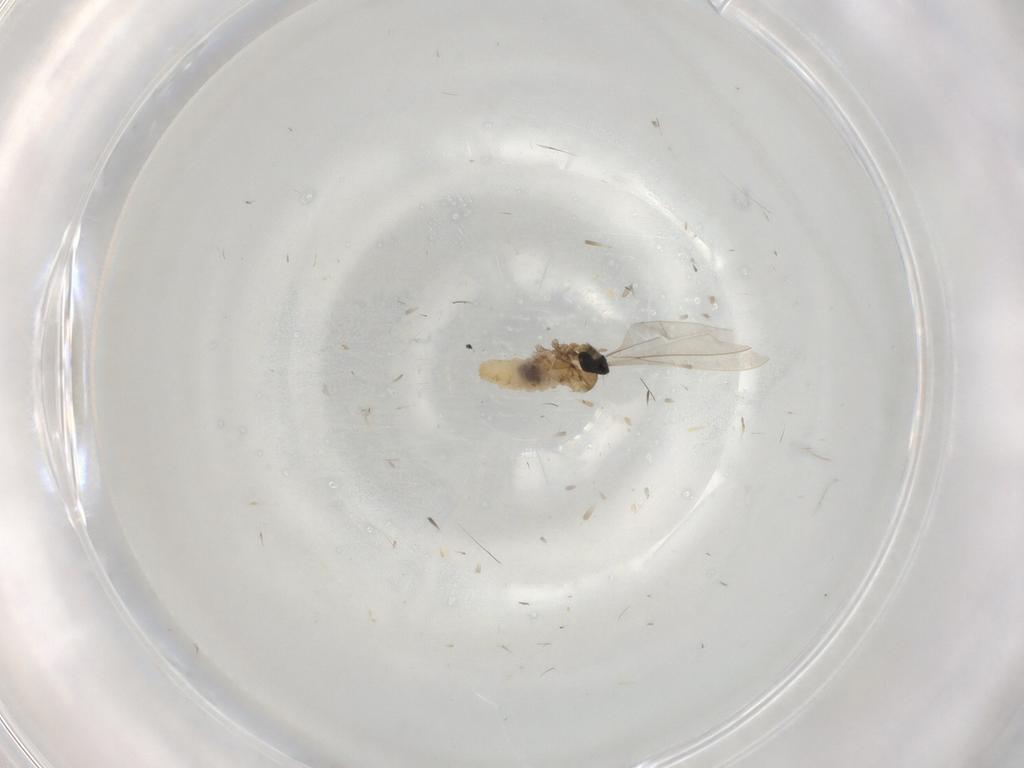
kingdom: Animalia
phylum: Arthropoda
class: Insecta
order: Diptera
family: Cecidomyiidae
